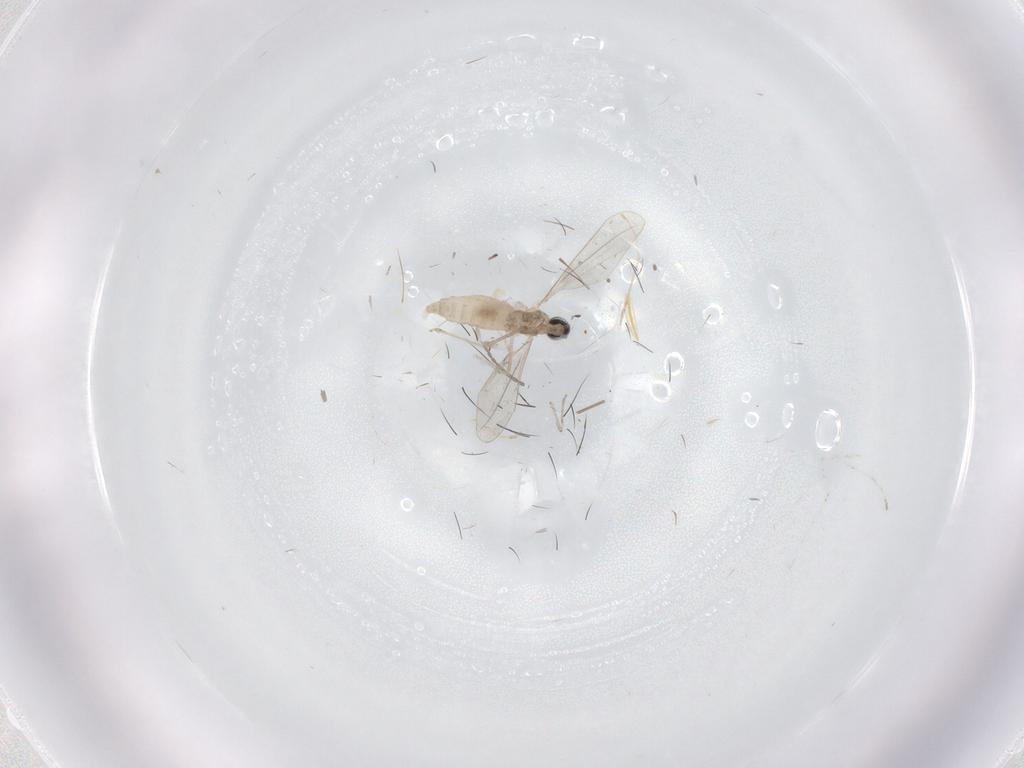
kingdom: Animalia
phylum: Arthropoda
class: Insecta
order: Diptera
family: Cecidomyiidae
